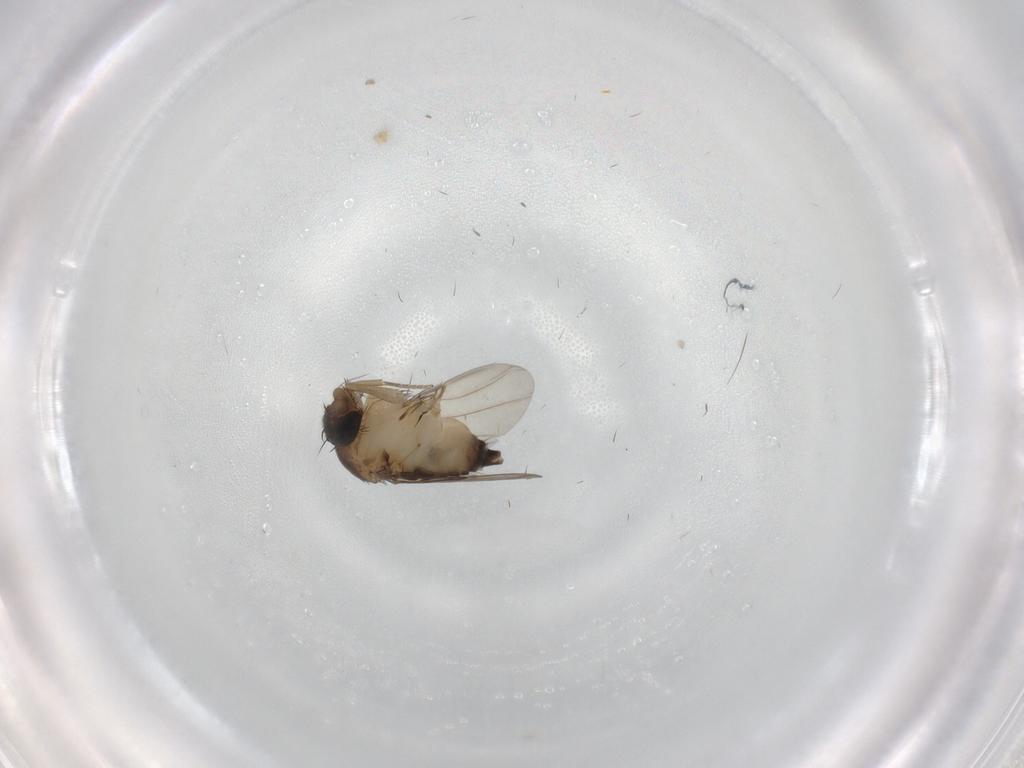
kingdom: Animalia
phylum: Arthropoda
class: Insecta
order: Diptera
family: Phoridae
